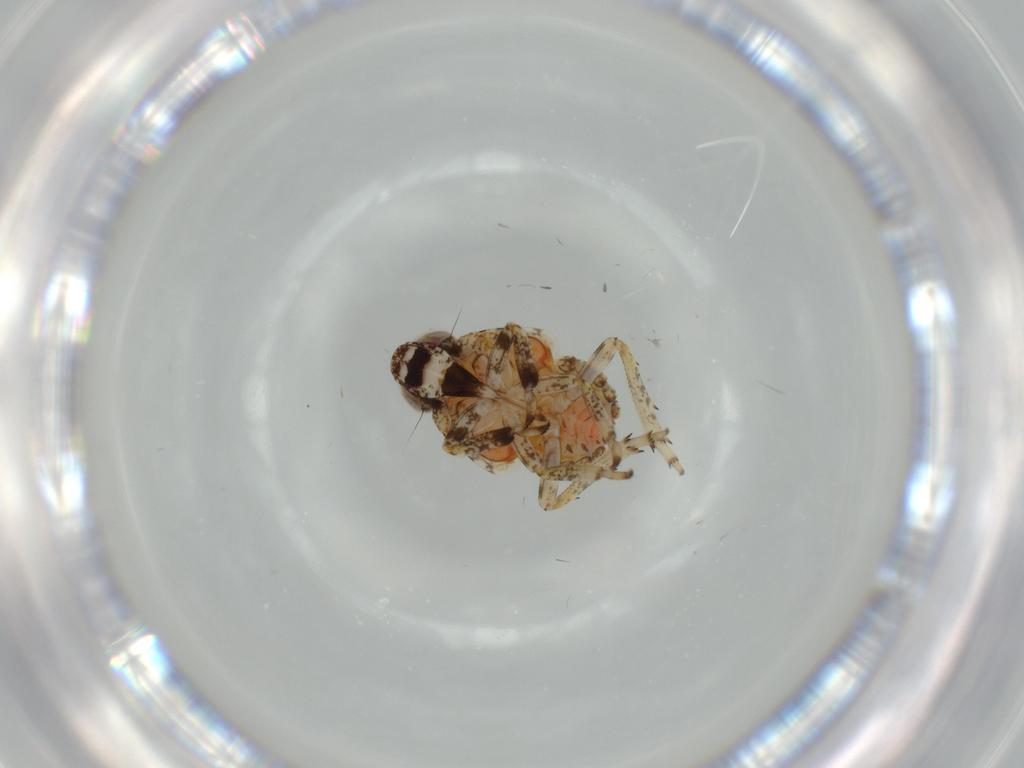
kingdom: Animalia
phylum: Arthropoda
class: Insecta
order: Hemiptera
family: Issidae
